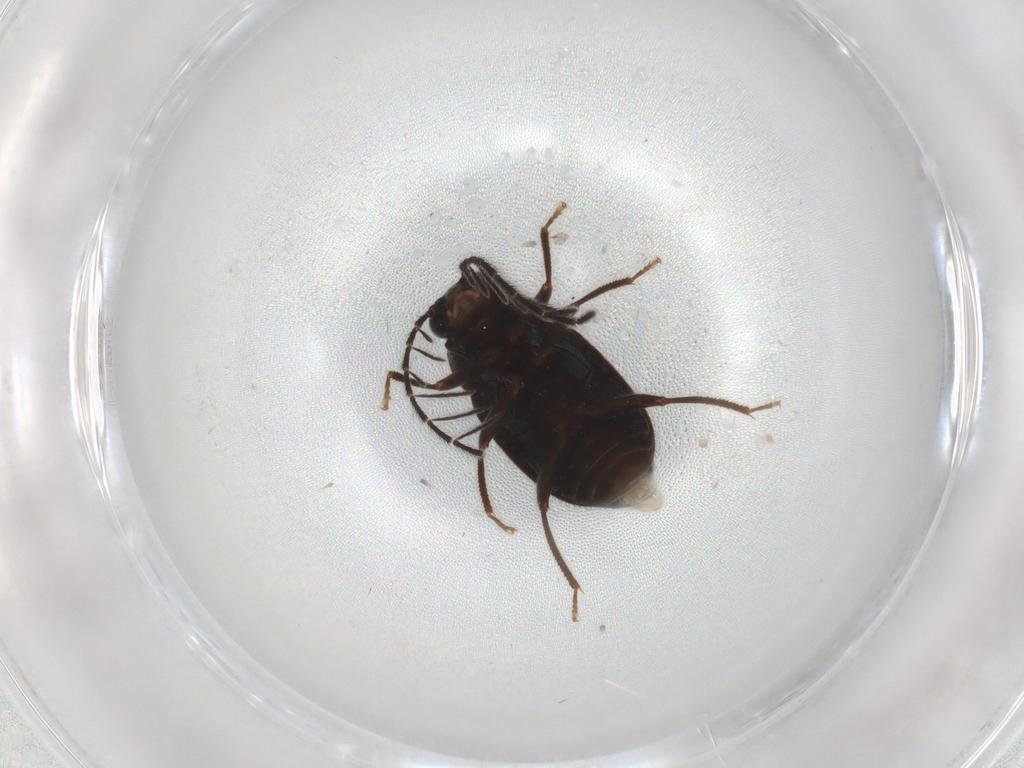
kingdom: Animalia
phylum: Arthropoda
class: Insecta
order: Coleoptera
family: Ptilodactylidae
